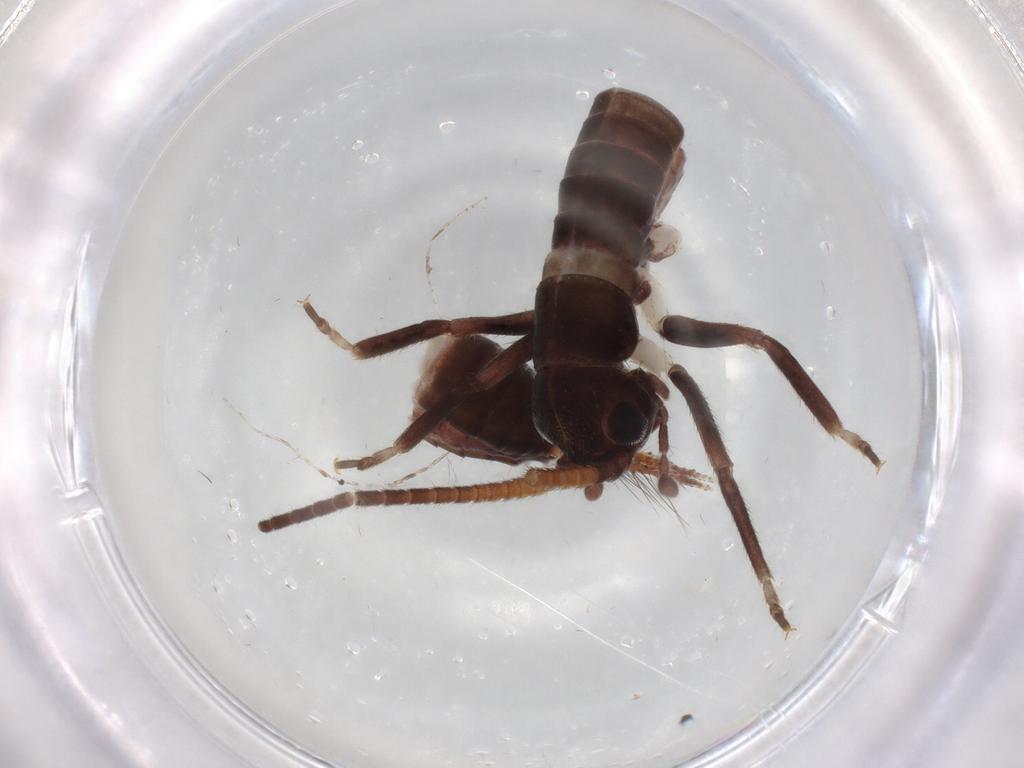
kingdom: Animalia
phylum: Arthropoda
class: Insecta
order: Orthoptera
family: Gryllidae
